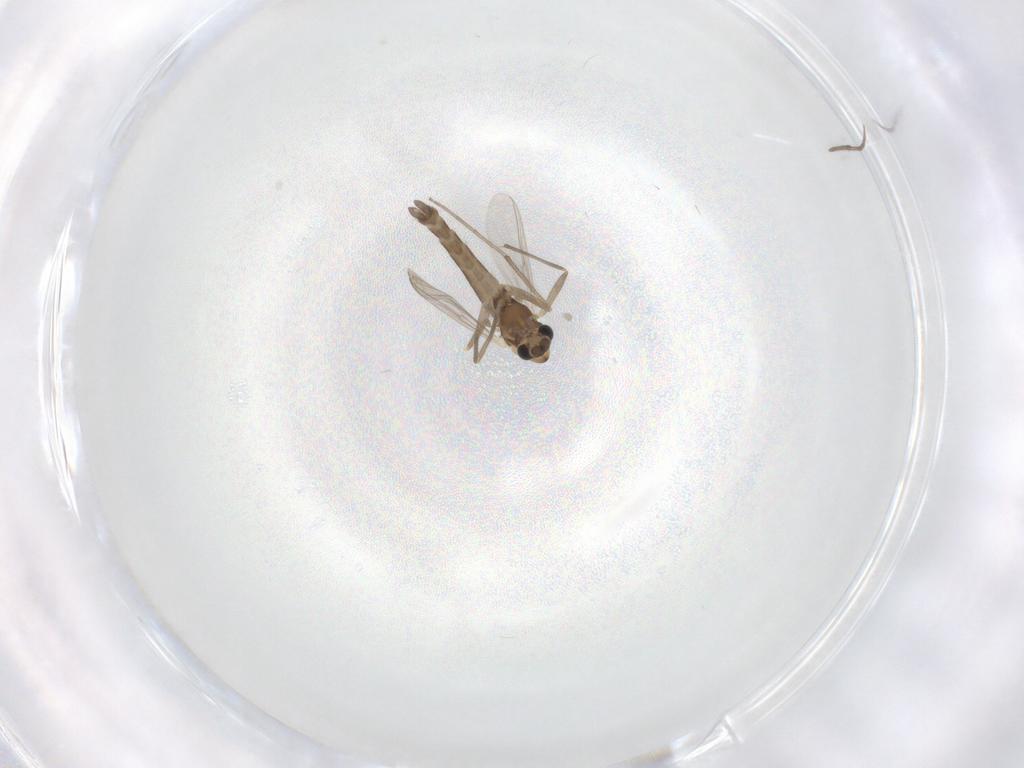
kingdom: Animalia
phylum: Arthropoda
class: Insecta
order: Diptera
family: Chironomidae
